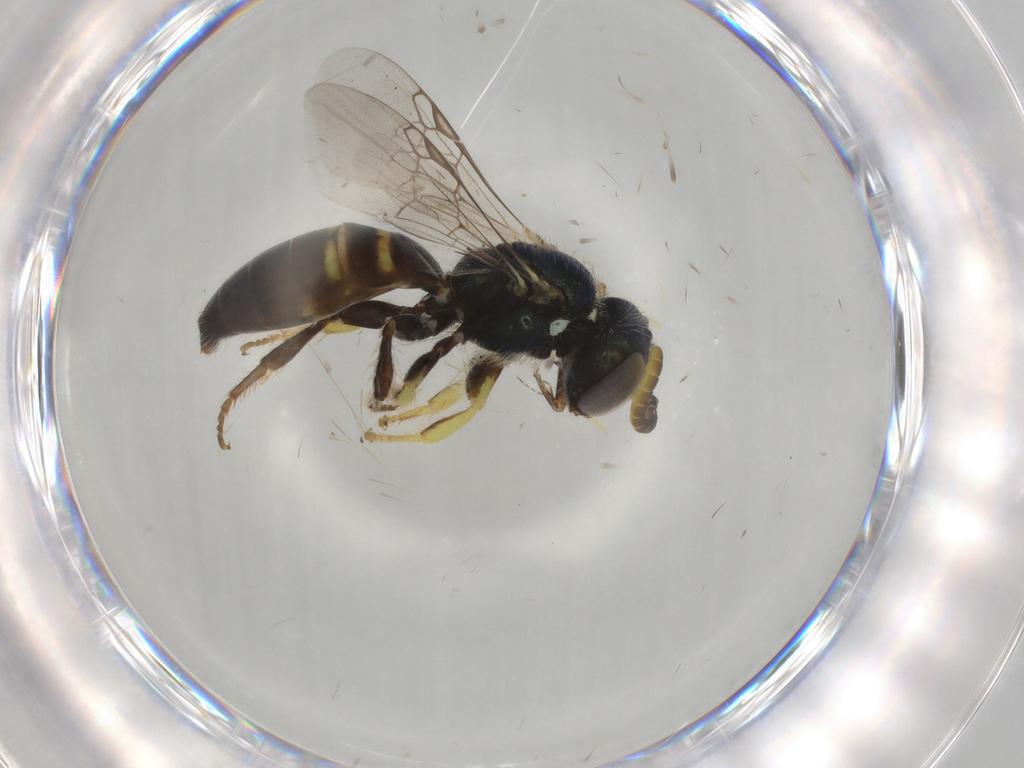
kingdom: Animalia
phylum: Arthropoda
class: Insecta
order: Hymenoptera
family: Andrenidae
